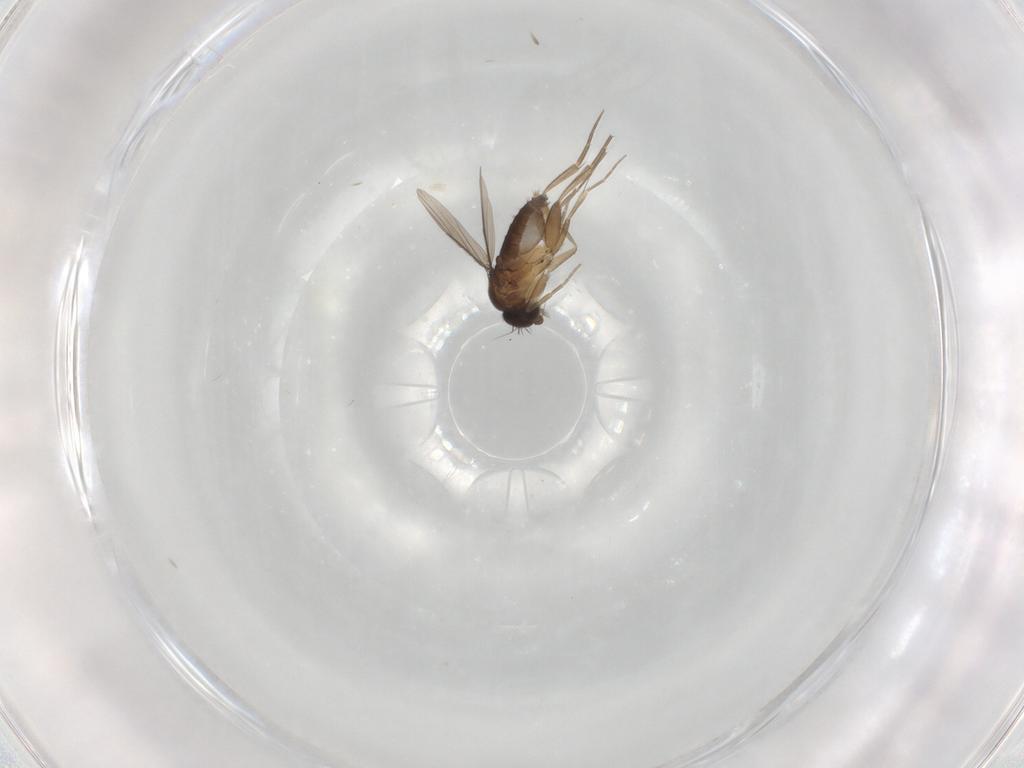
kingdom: Animalia
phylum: Arthropoda
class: Insecta
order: Diptera
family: Phoridae
